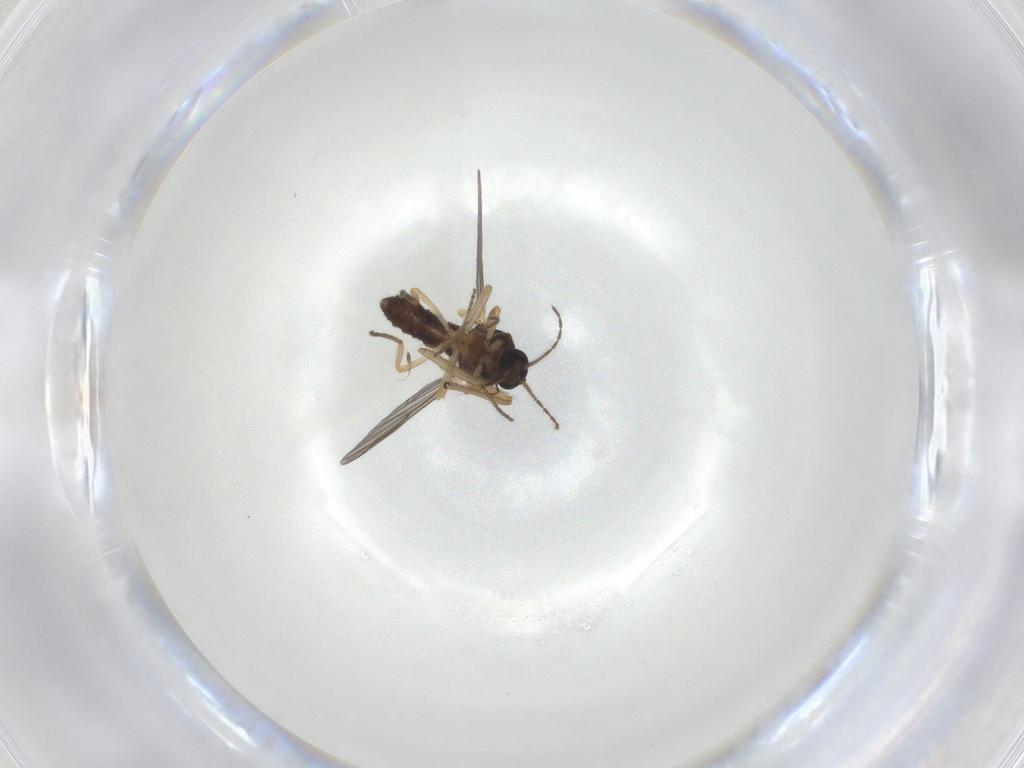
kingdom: Animalia
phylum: Arthropoda
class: Insecta
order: Diptera
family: Ceratopogonidae
